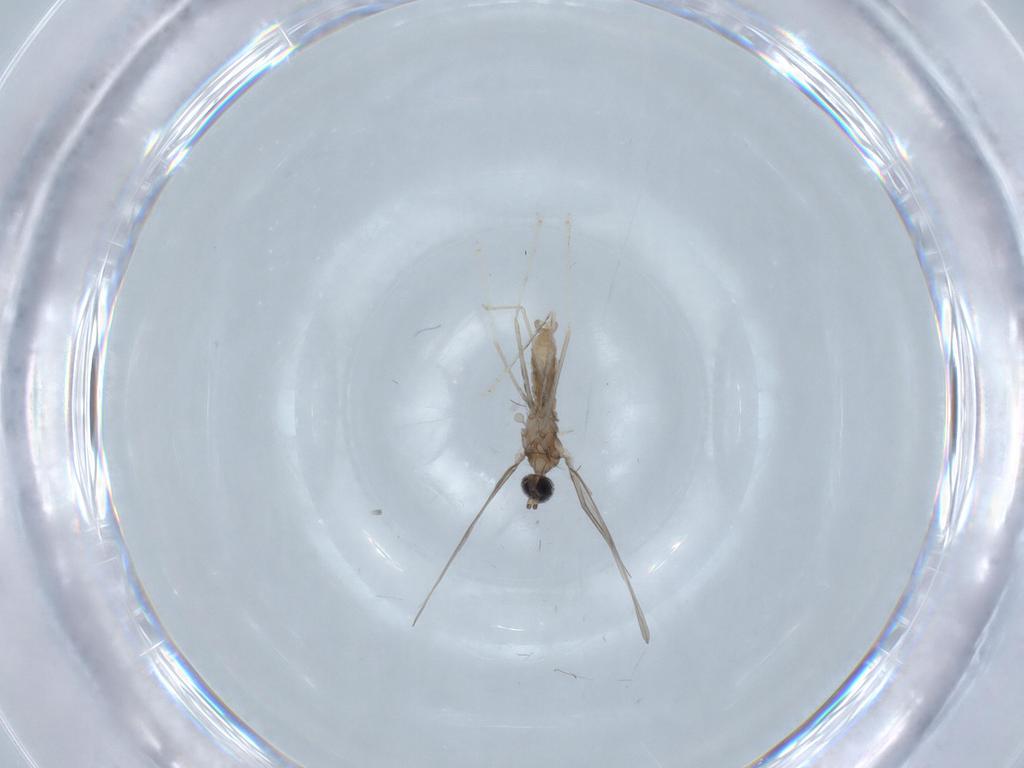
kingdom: Animalia
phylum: Arthropoda
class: Insecta
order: Diptera
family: Cecidomyiidae
